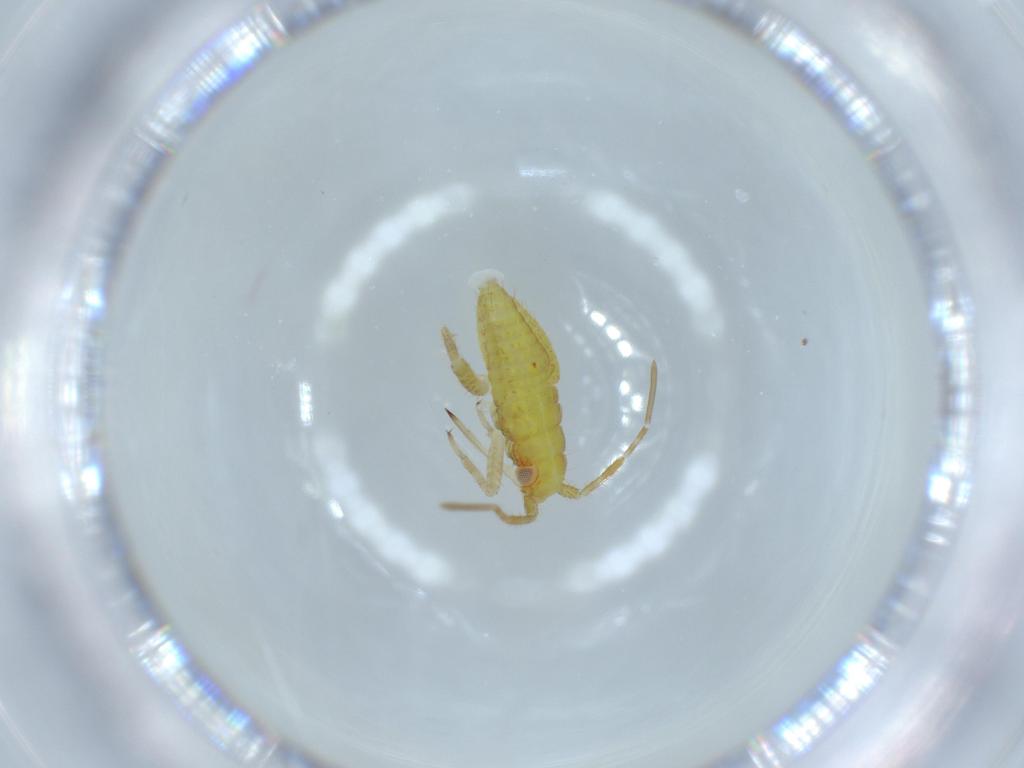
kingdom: Animalia
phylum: Arthropoda
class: Insecta
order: Hemiptera
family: Miridae
